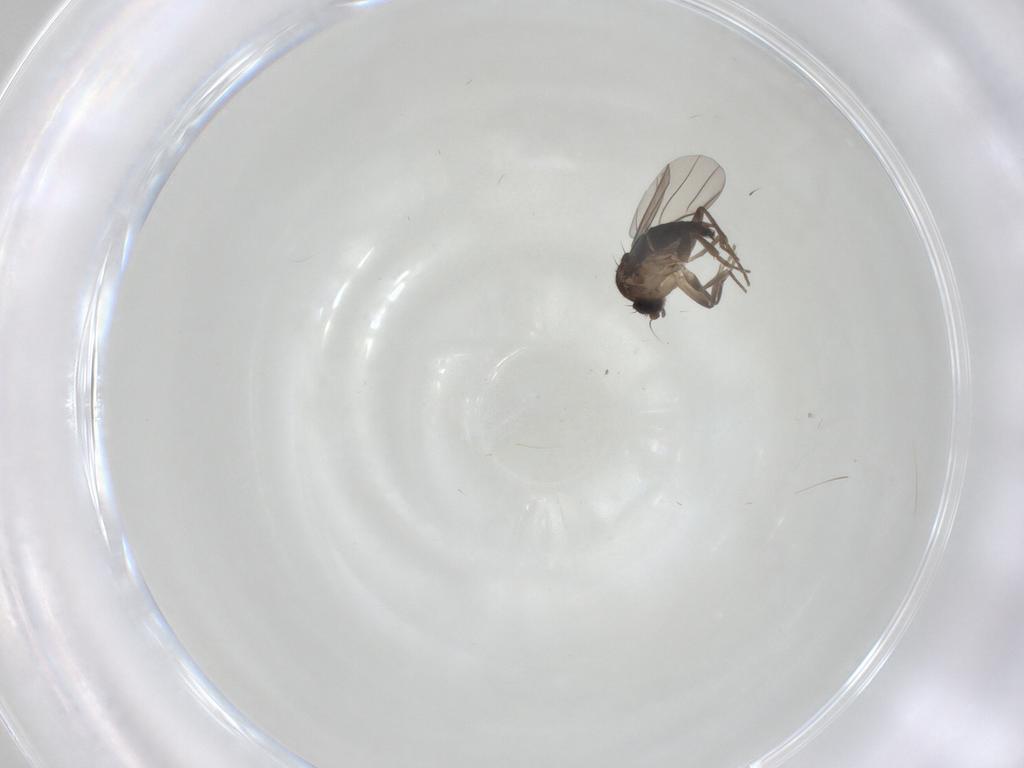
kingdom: Animalia
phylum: Arthropoda
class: Insecta
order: Diptera
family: Phoridae
